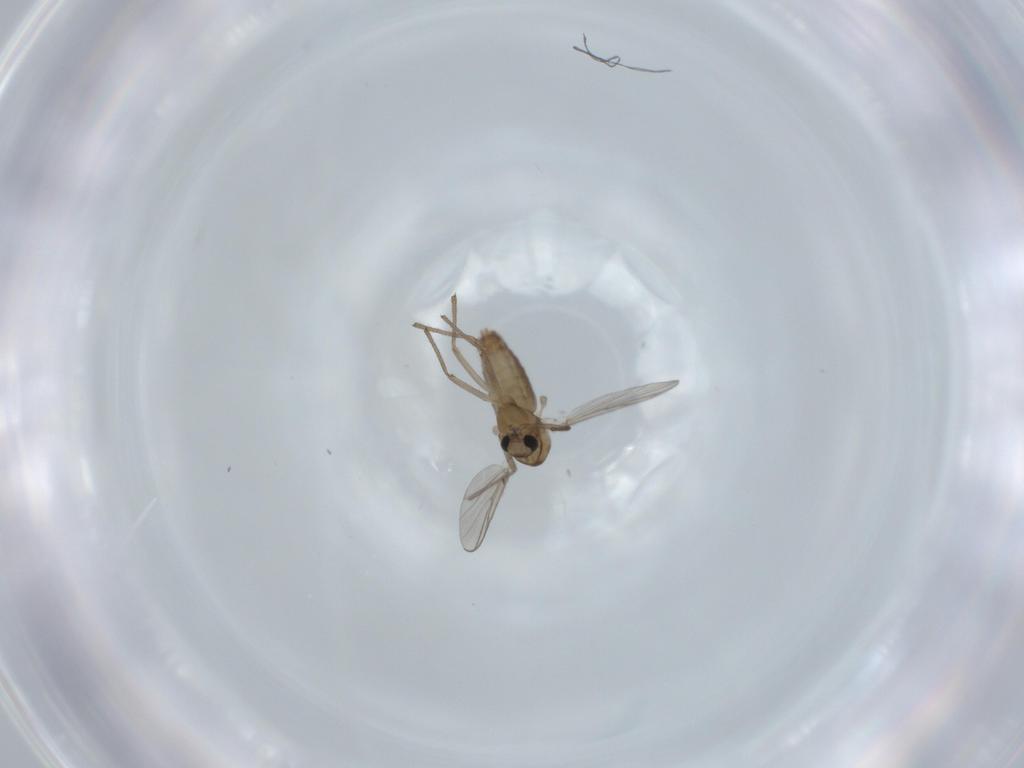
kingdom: Animalia
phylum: Arthropoda
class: Insecta
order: Diptera
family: Chironomidae
